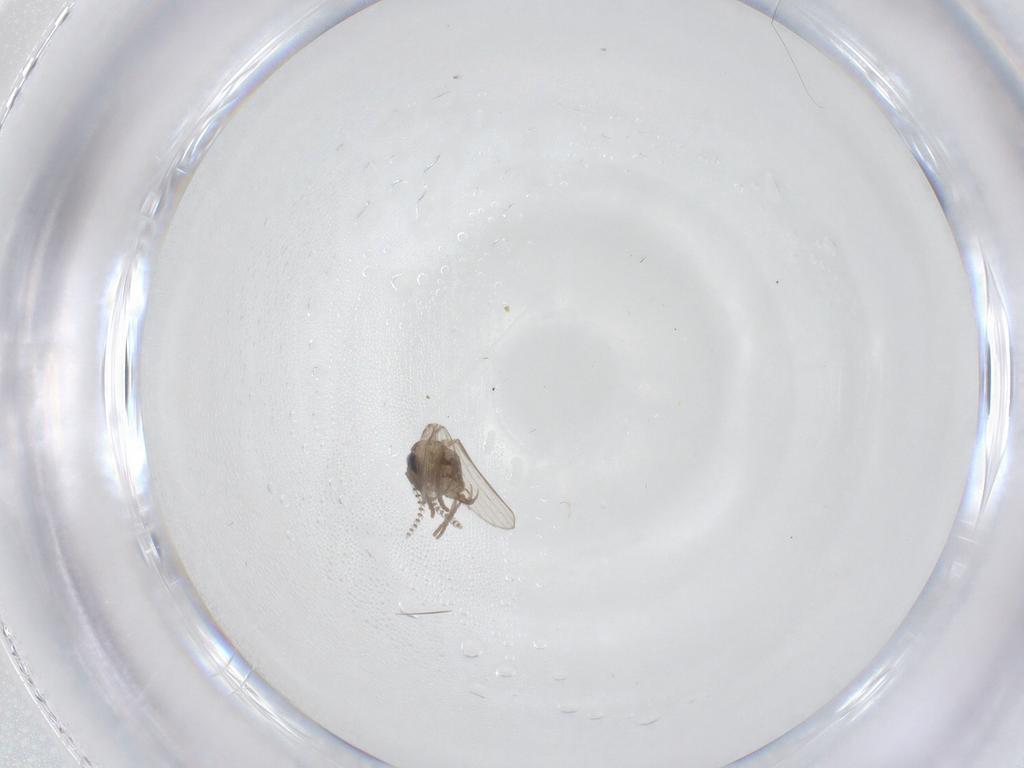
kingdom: Animalia
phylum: Arthropoda
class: Insecta
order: Diptera
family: Psychodidae
